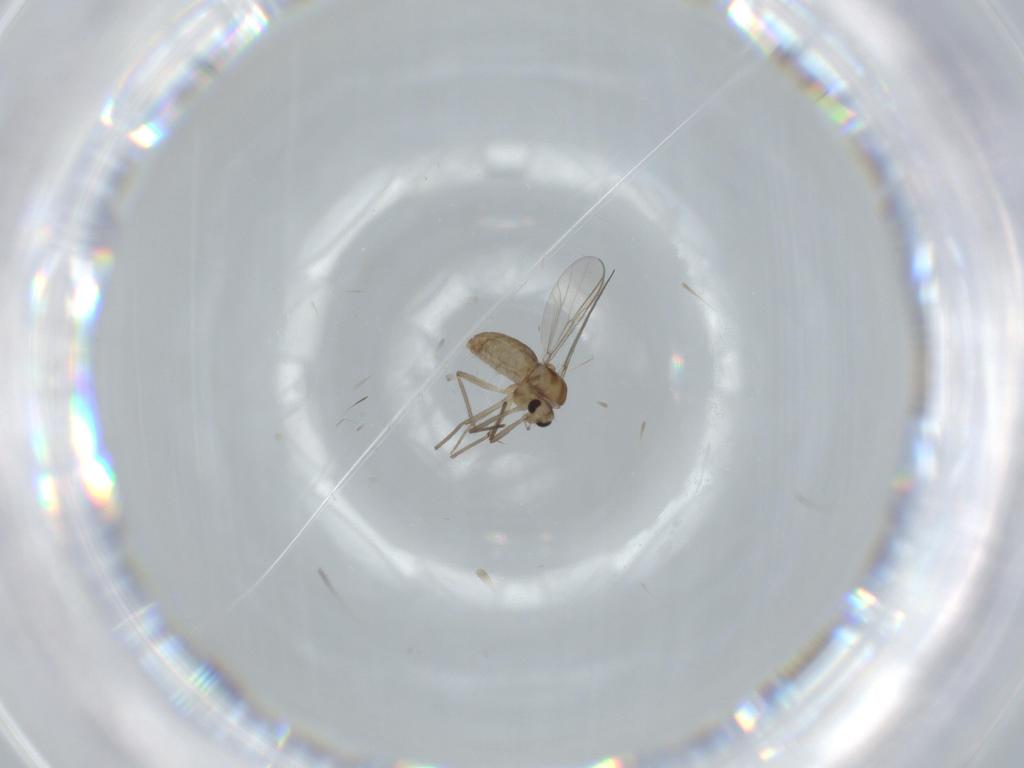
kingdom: Animalia
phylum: Arthropoda
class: Insecta
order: Diptera
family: Chironomidae
